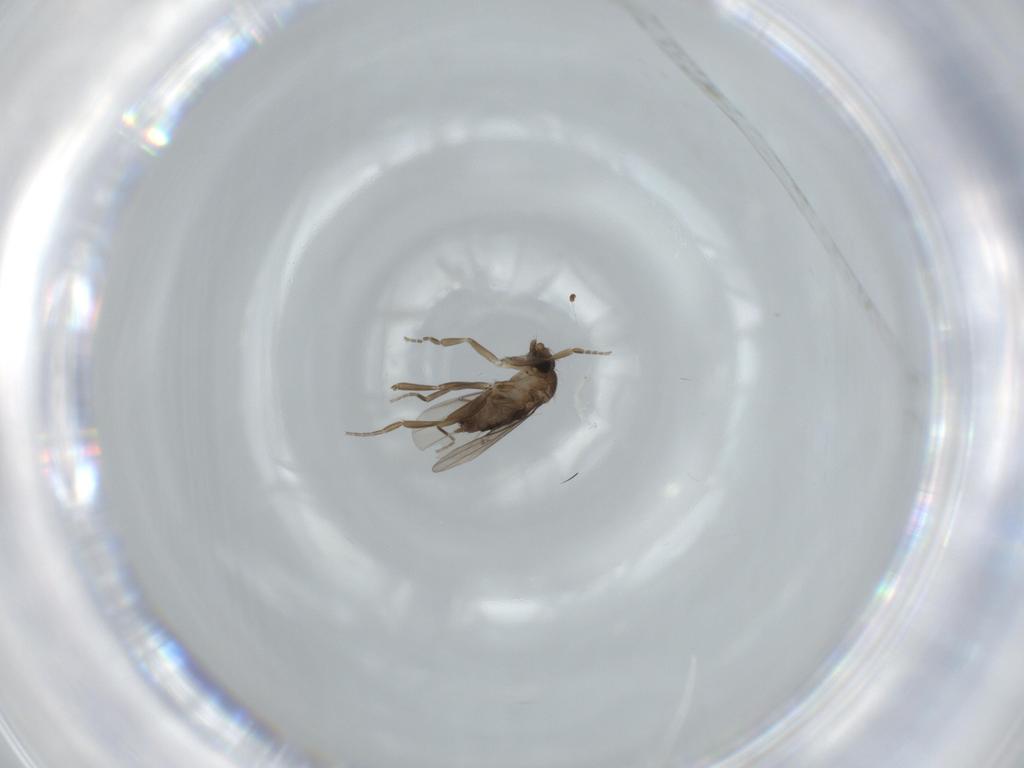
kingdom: Animalia
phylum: Arthropoda
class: Insecta
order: Diptera
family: Phoridae
